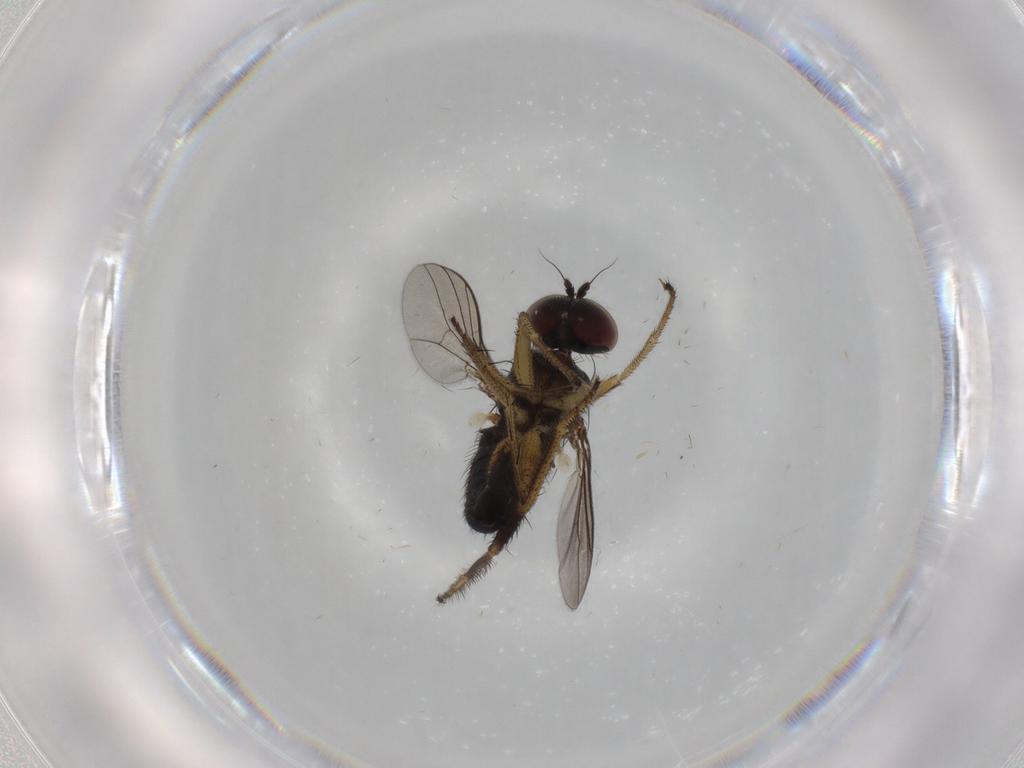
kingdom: Animalia
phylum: Arthropoda
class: Insecta
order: Diptera
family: Dolichopodidae
